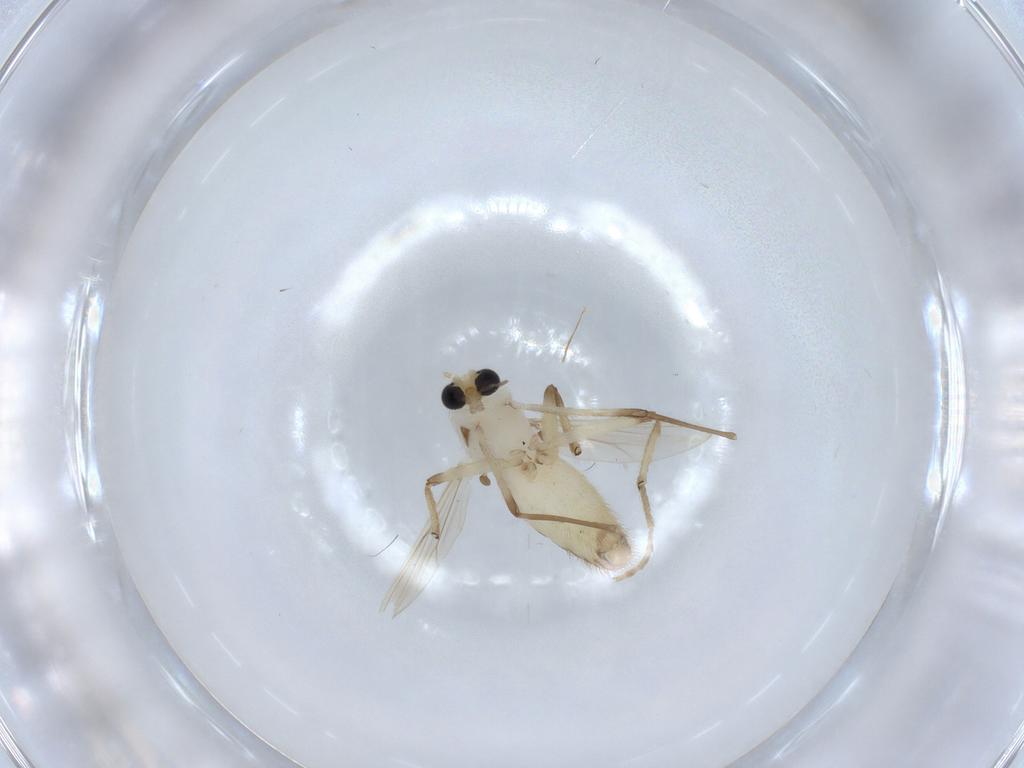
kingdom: Animalia
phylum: Arthropoda
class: Insecta
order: Diptera
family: Chironomidae
